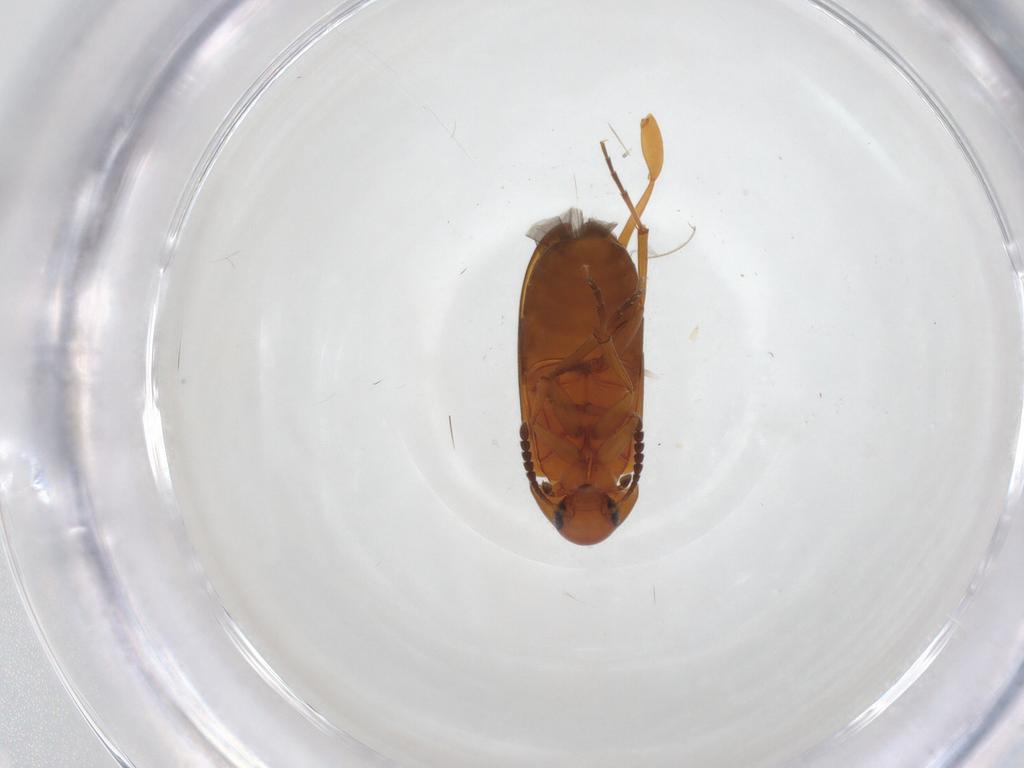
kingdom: Animalia
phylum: Arthropoda
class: Insecta
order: Coleoptera
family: Scraptiidae
